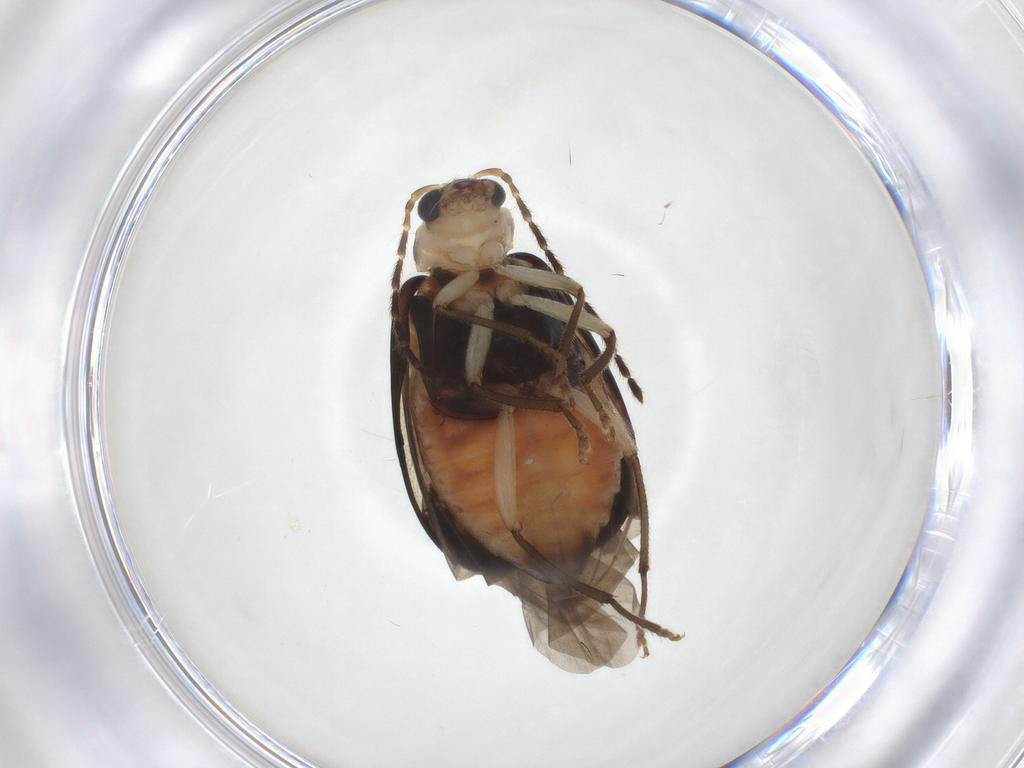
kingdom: Animalia
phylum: Arthropoda
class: Insecta
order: Coleoptera
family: Chrysomelidae
